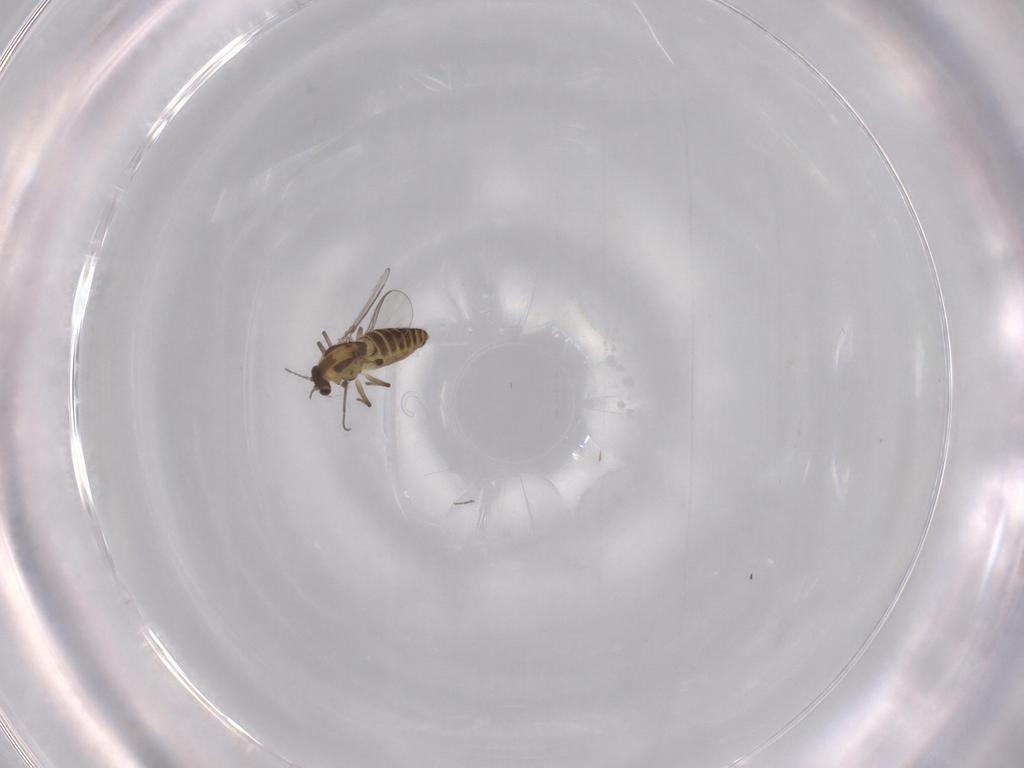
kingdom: Animalia
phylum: Arthropoda
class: Insecta
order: Diptera
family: Chironomidae
